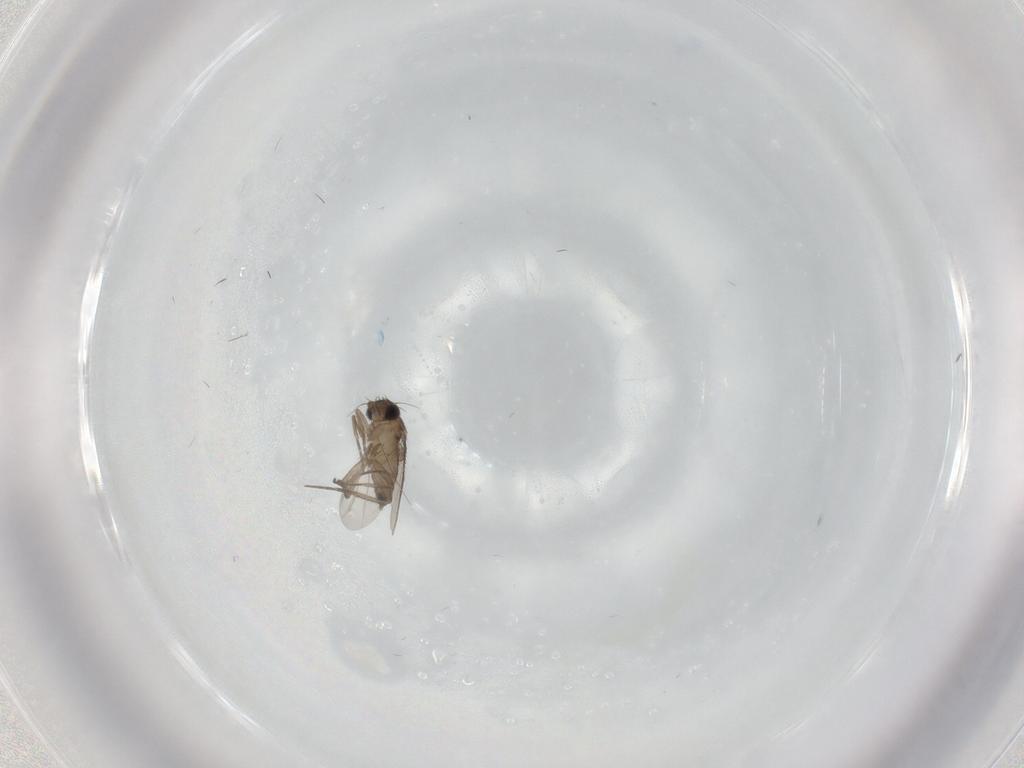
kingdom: Animalia
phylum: Arthropoda
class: Insecta
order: Diptera
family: Phoridae
